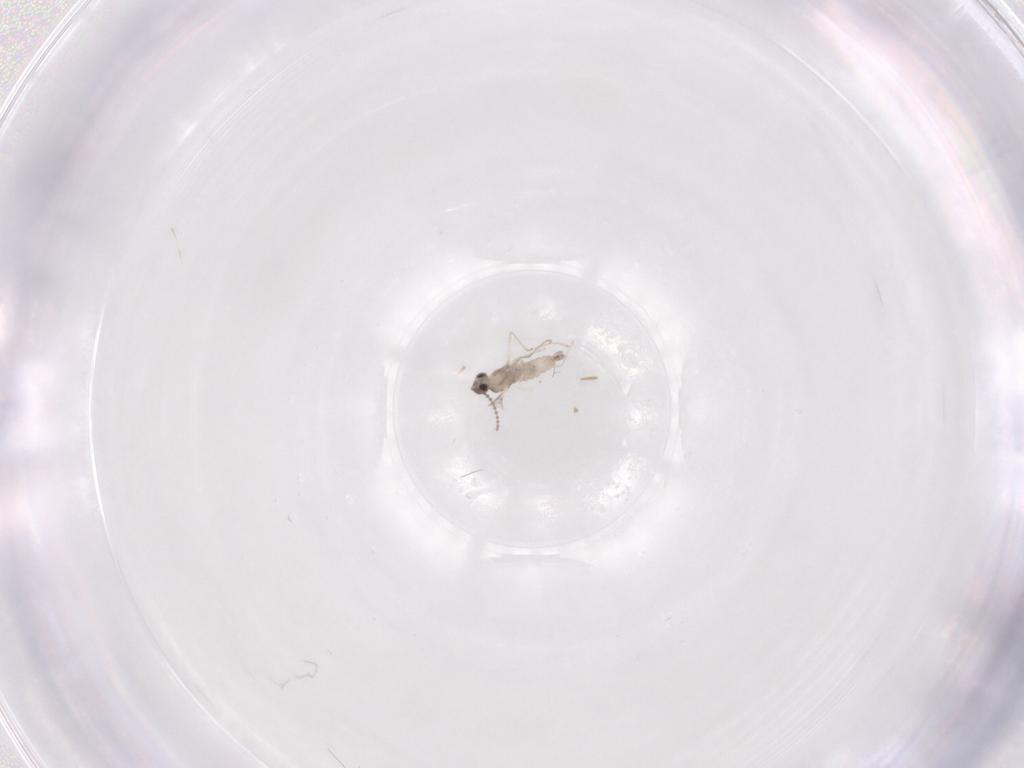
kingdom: Animalia
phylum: Arthropoda
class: Insecta
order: Diptera
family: Cecidomyiidae
